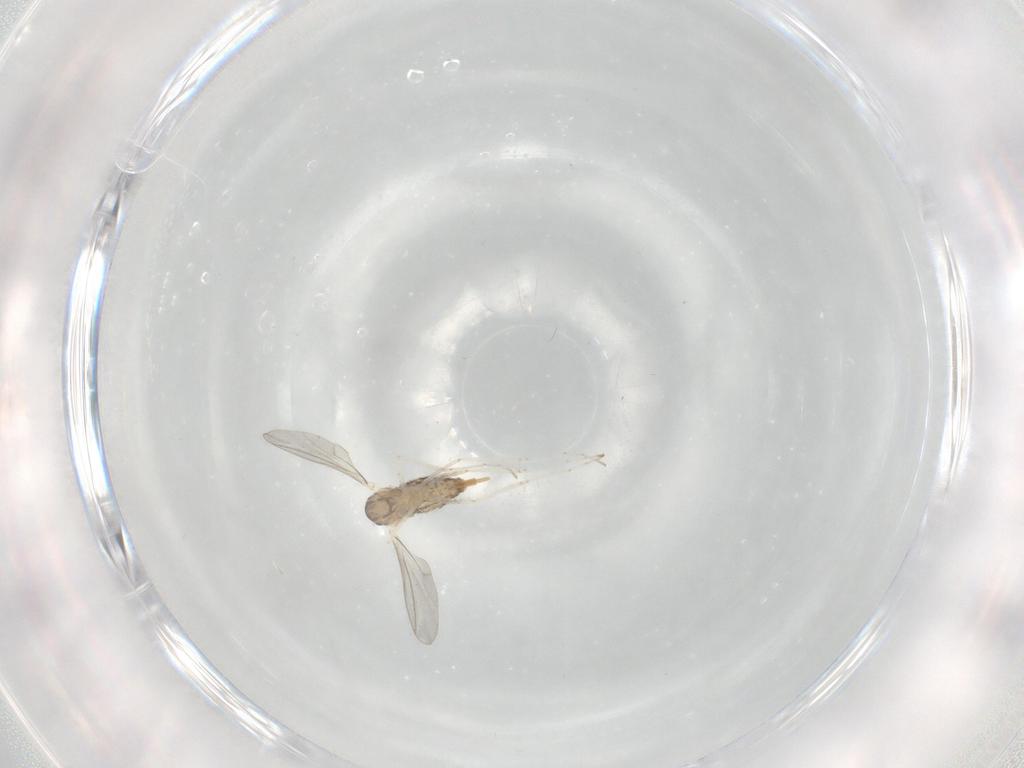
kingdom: Animalia
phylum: Arthropoda
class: Insecta
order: Diptera
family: Cecidomyiidae
